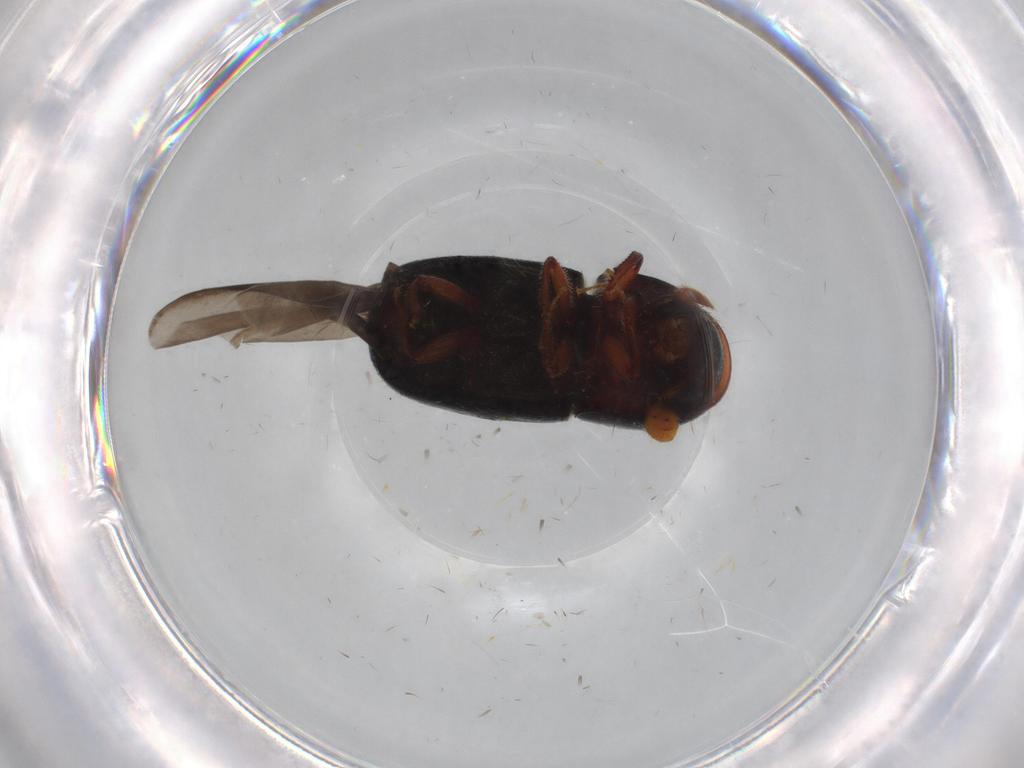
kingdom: Animalia
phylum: Arthropoda
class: Insecta
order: Coleoptera
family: Curculionidae
